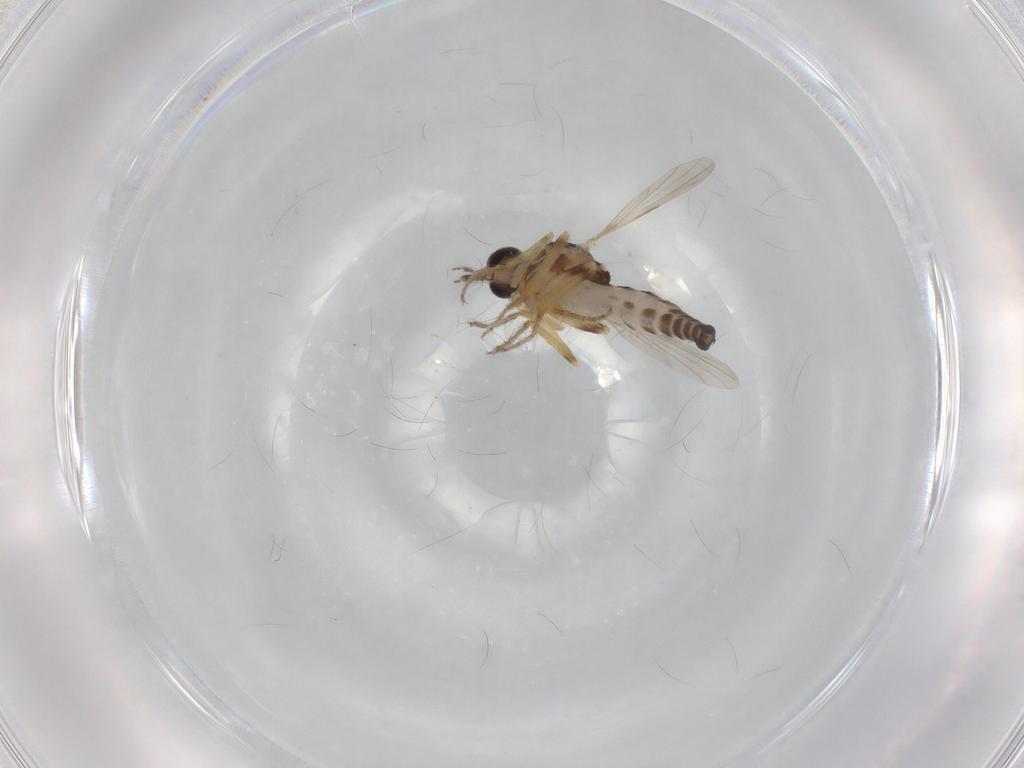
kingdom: Animalia
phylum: Arthropoda
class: Insecta
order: Diptera
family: Ceratopogonidae
